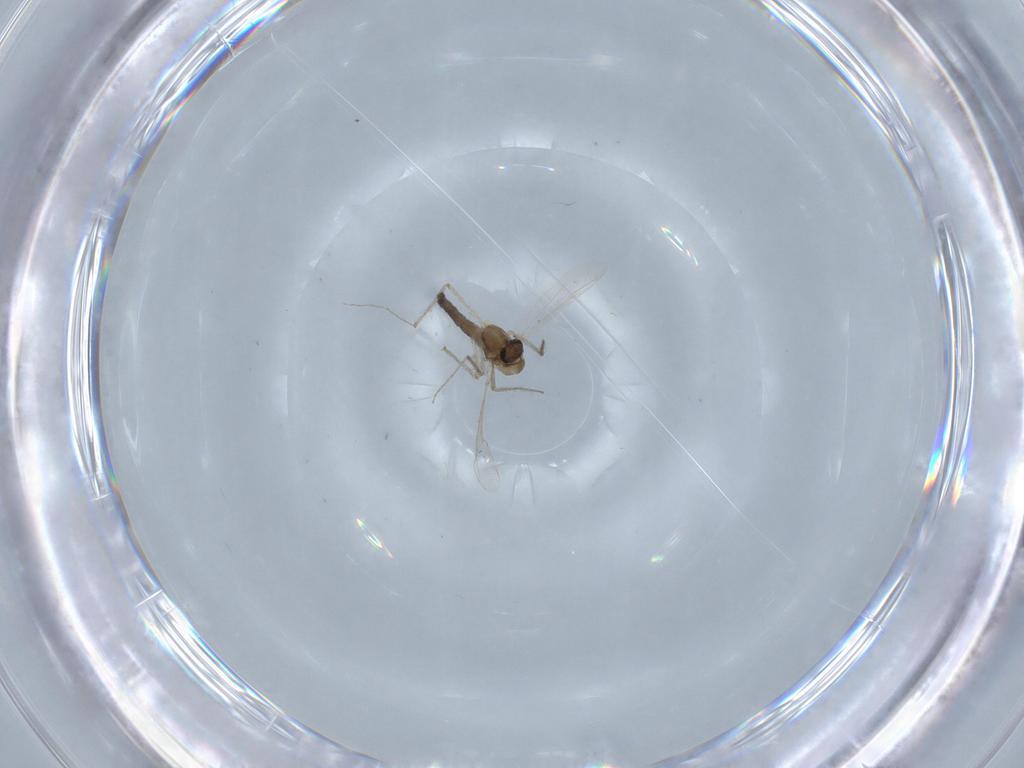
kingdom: Animalia
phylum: Arthropoda
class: Insecta
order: Diptera
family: Chironomidae
